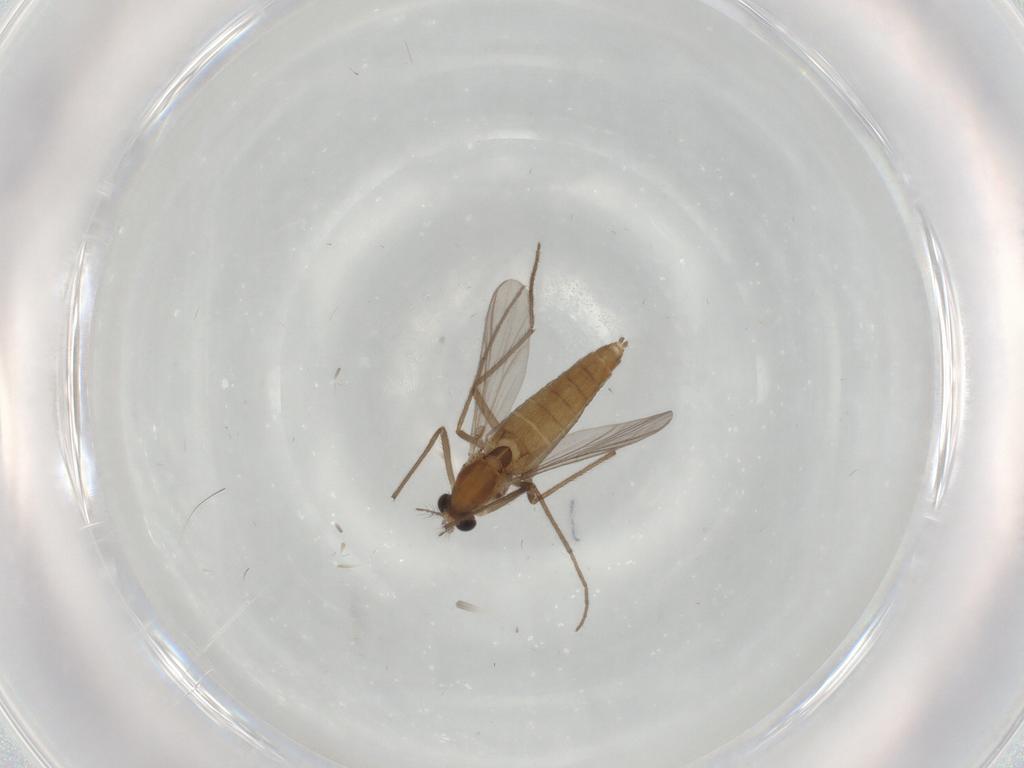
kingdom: Animalia
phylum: Arthropoda
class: Insecta
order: Diptera
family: Chironomidae
